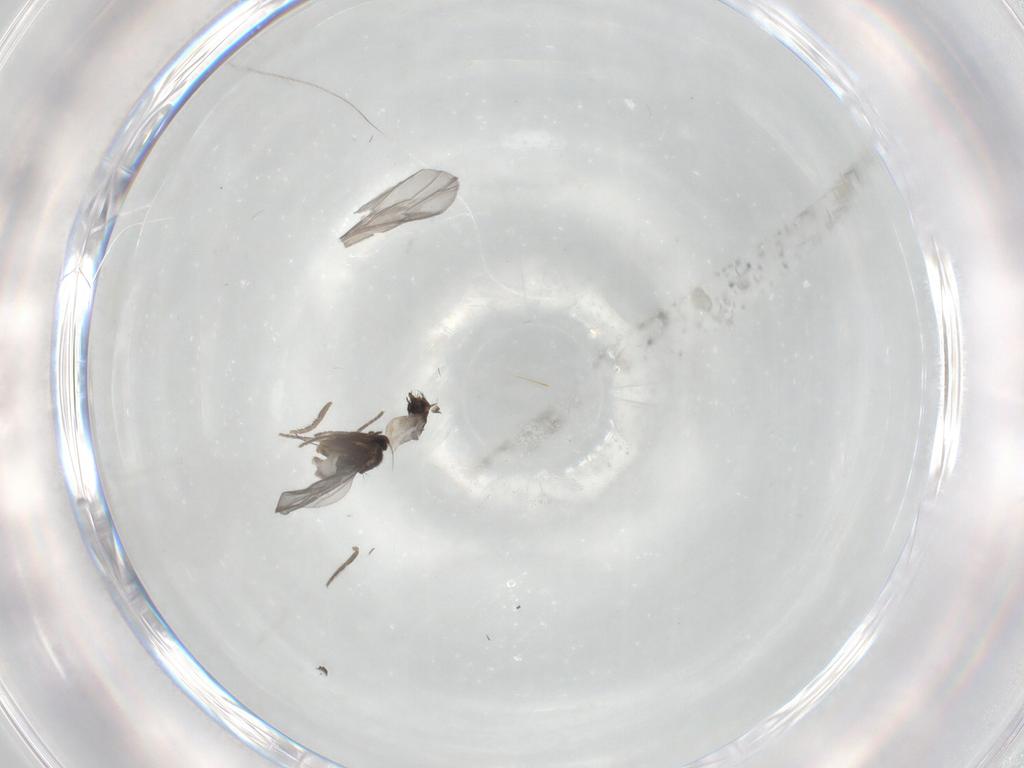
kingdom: Animalia
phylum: Arthropoda
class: Insecta
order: Diptera
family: Phoridae
